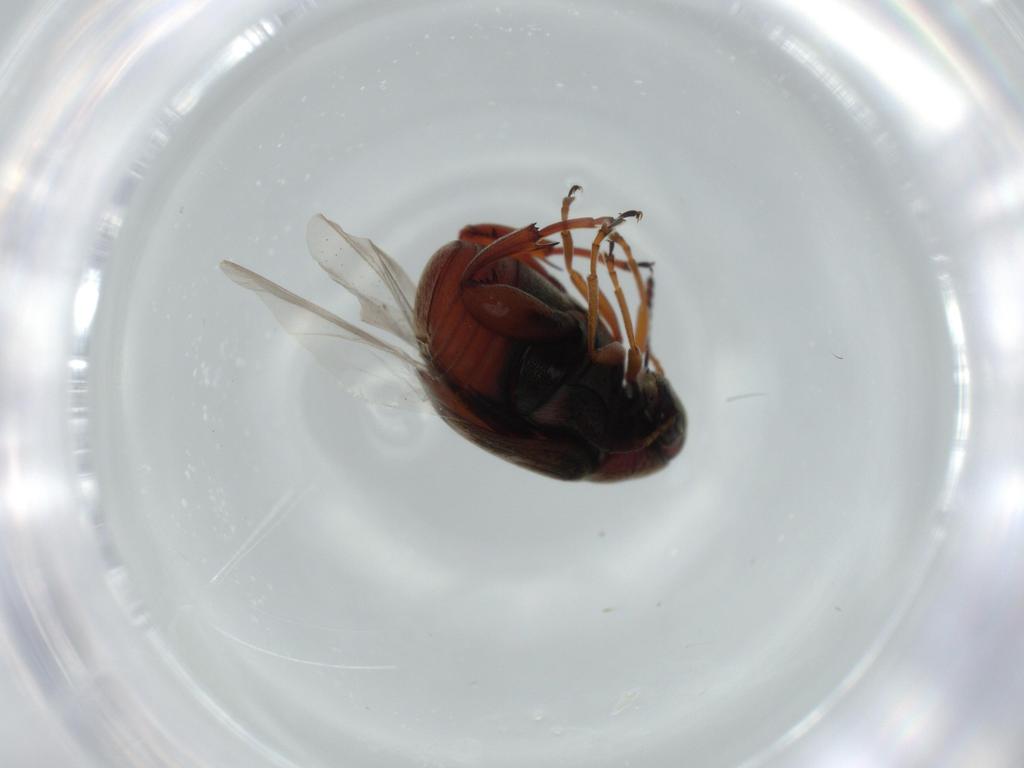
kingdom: Animalia
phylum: Arthropoda
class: Insecta
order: Coleoptera
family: Chrysomelidae
